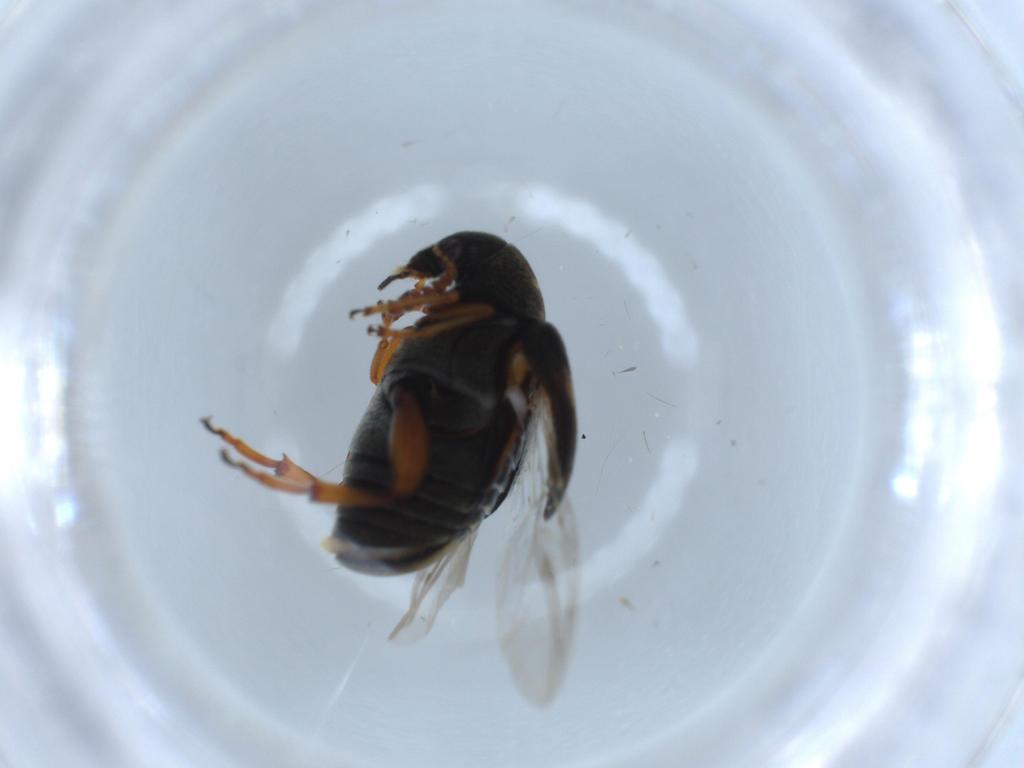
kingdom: Animalia
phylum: Arthropoda
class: Insecta
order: Coleoptera
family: Chrysomelidae
